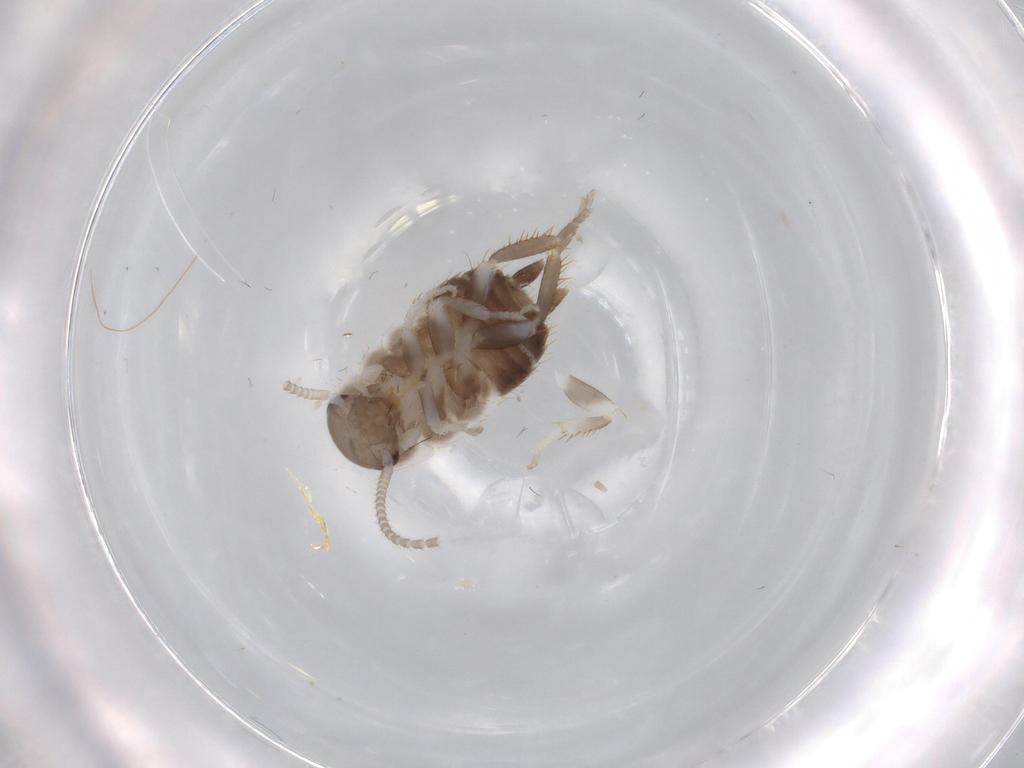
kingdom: Animalia
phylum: Arthropoda
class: Insecta
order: Blattodea
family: Ectobiidae
